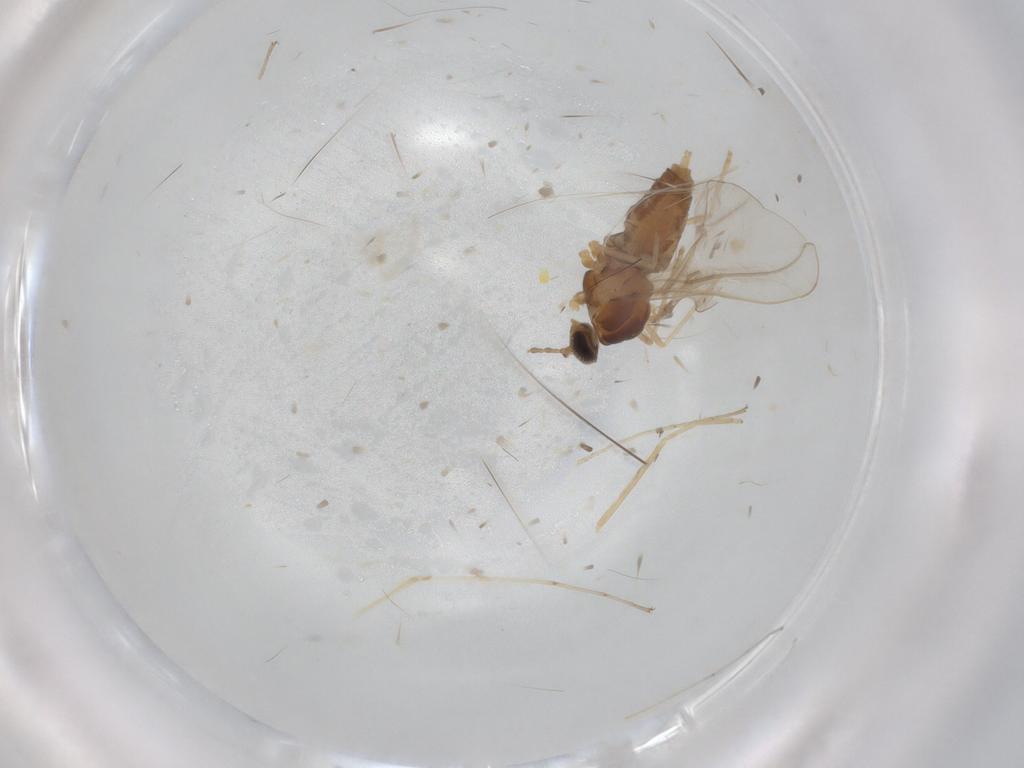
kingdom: Animalia
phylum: Arthropoda
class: Insecta
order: Diptera
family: Cecidomyiidae
